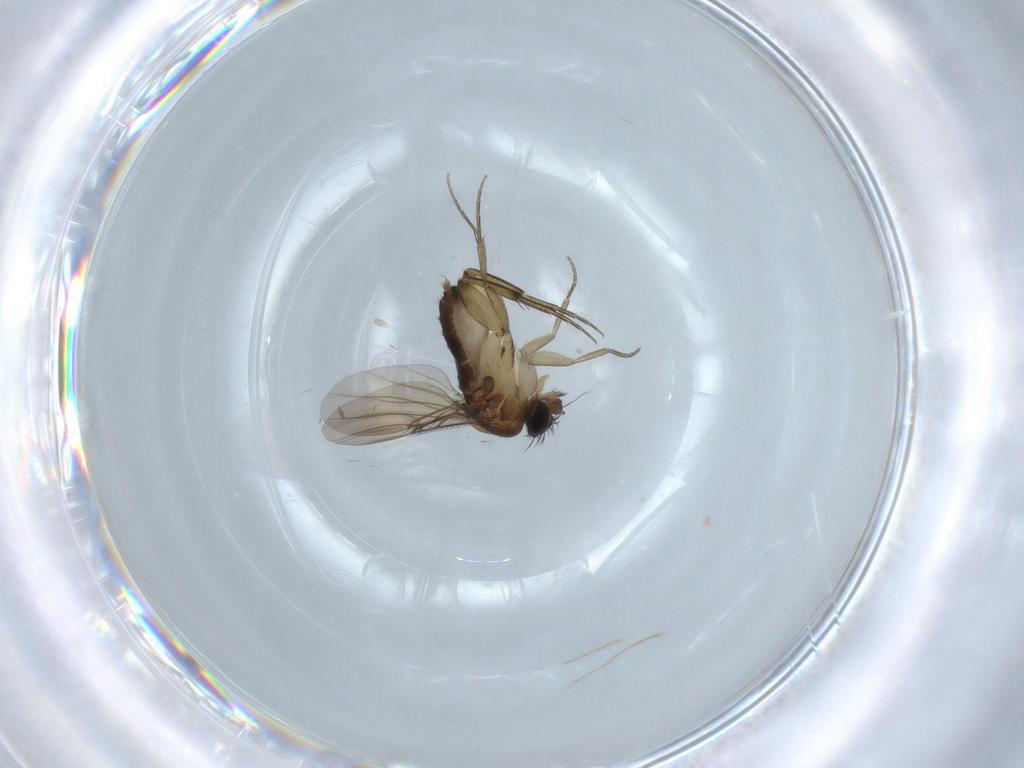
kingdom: Animalia
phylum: Arthropoda
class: Insecta
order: Diptera
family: Phoridae
